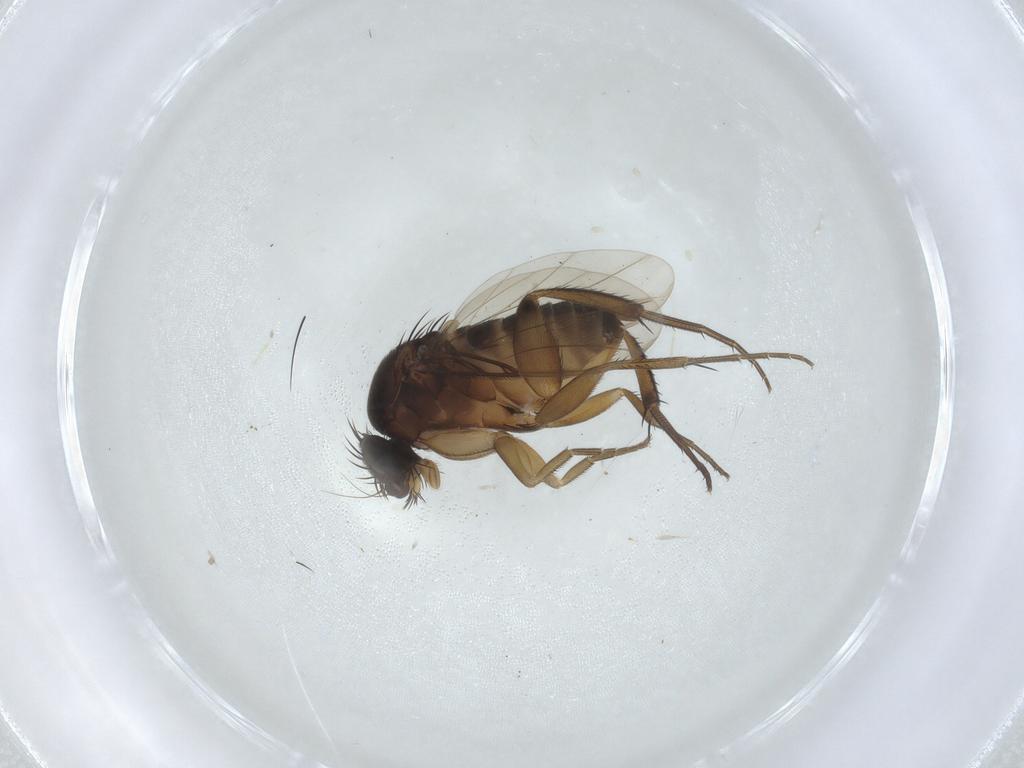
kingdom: Animalia
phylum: Arthropoda
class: Insecta
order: Diptera
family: Phoridae
